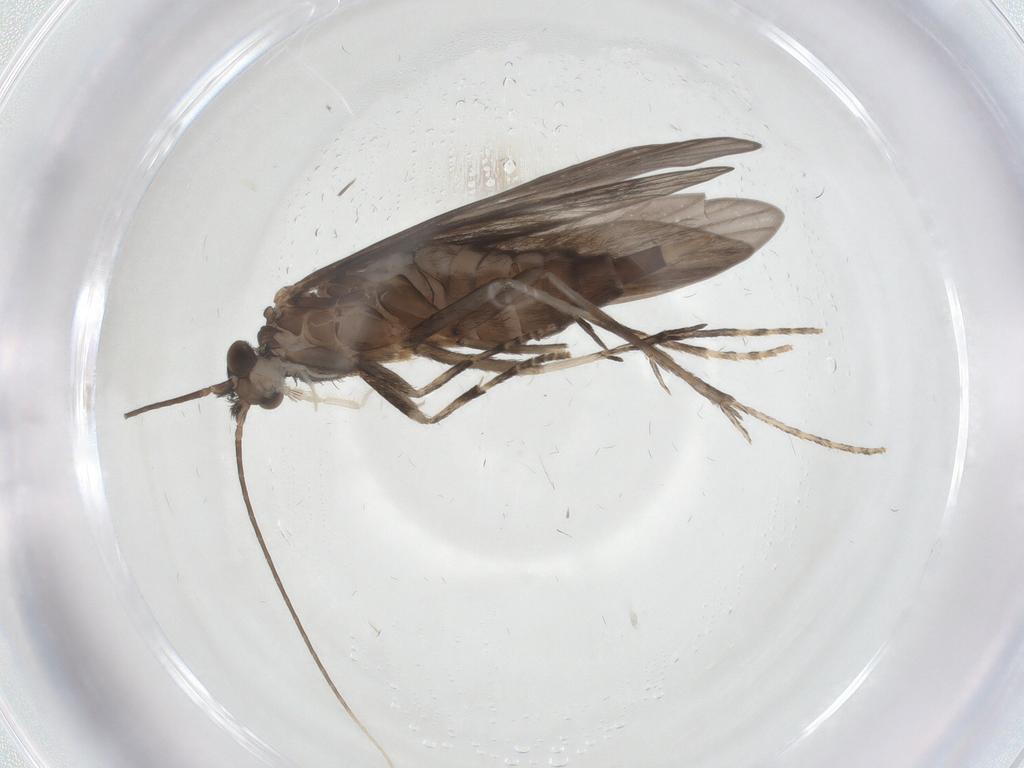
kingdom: Animalia
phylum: Arthropoda
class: Insecta
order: Trichoptera
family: Xiphocentronidae
